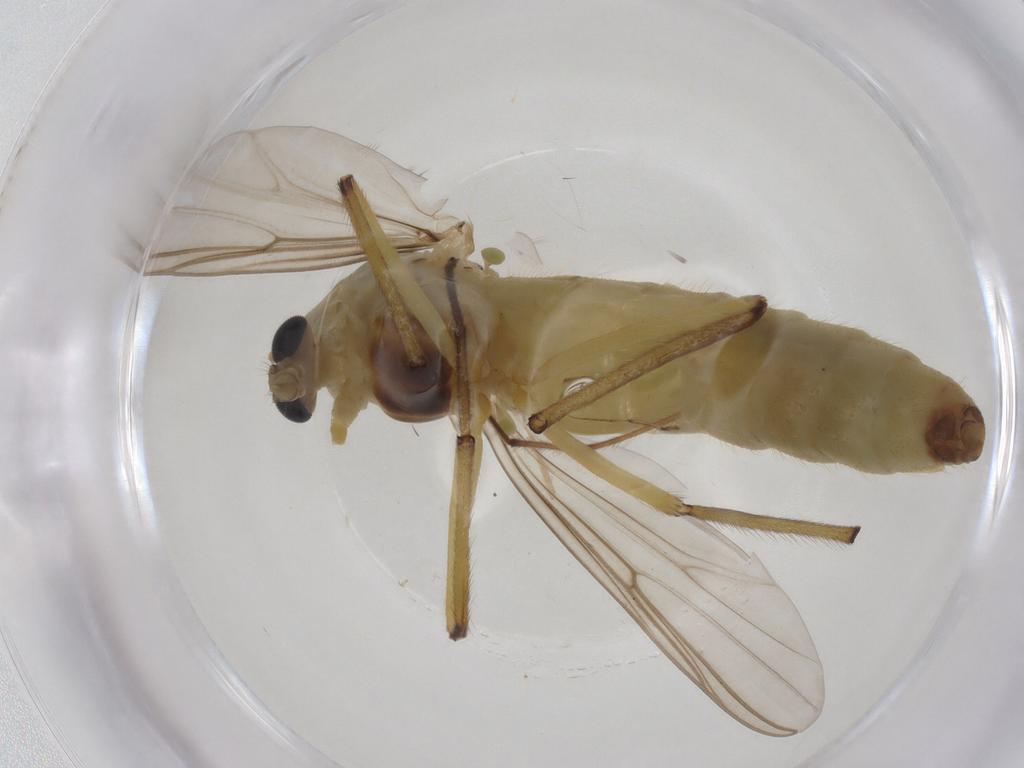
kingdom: Animalia
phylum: Arthropoda
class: Insecta
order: Diptera
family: Chironomidae
